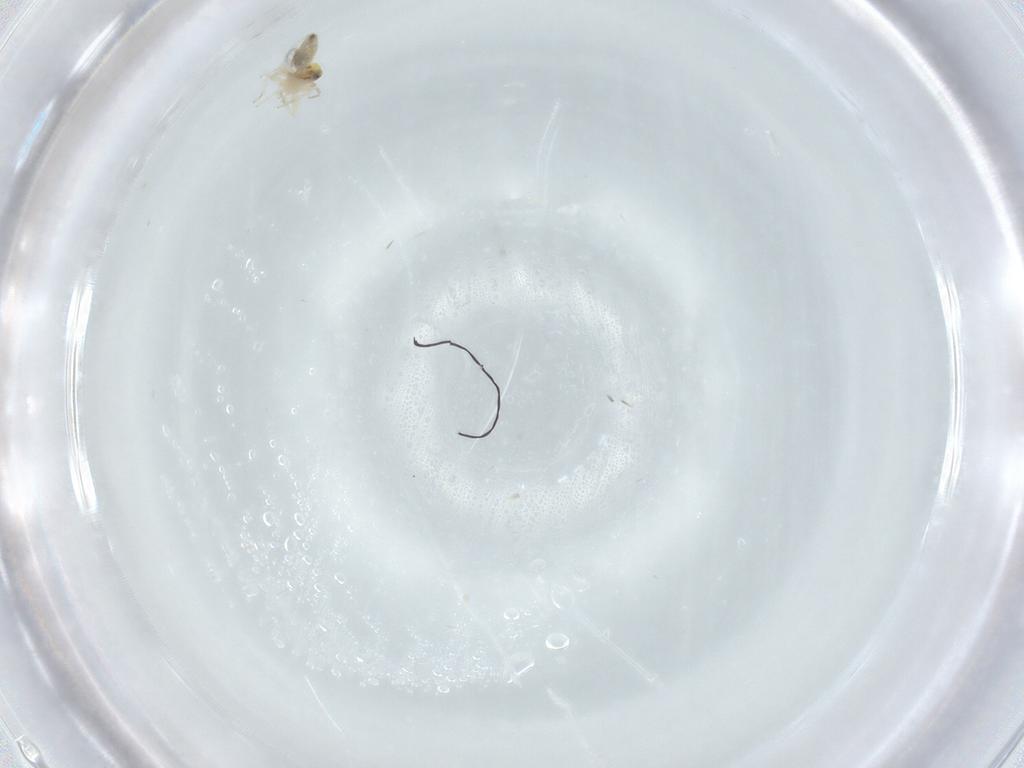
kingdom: Animalia
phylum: Arthropoda
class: Insecta
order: Psocodea
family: Lepidopsocidae
